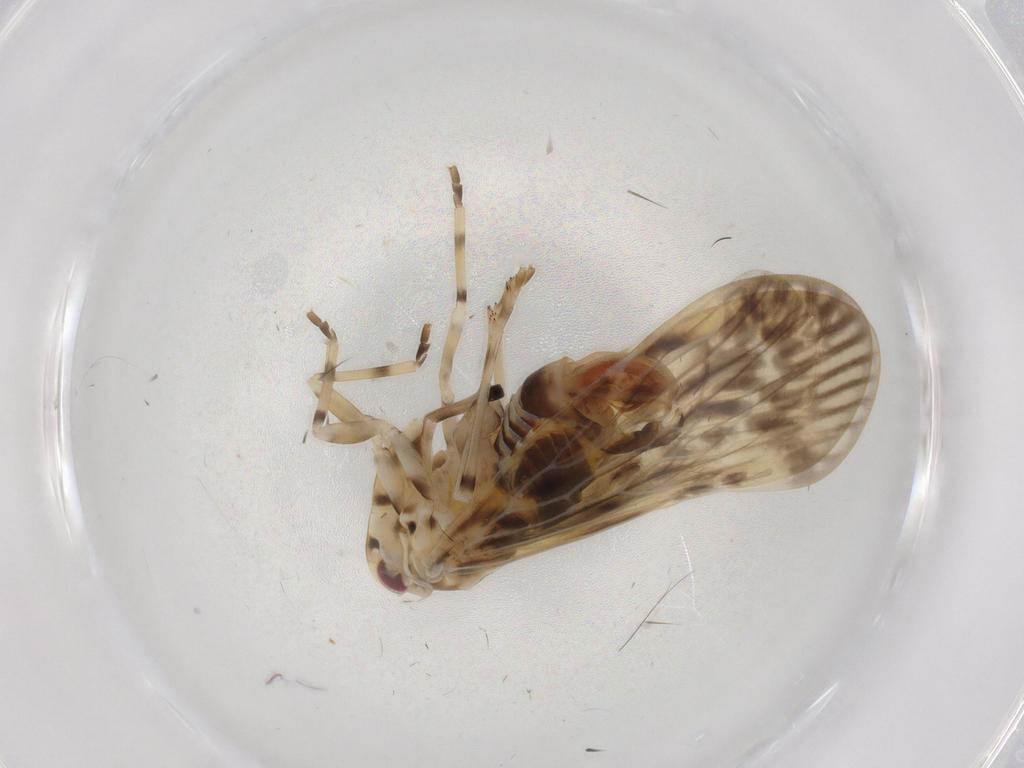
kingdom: Animalia
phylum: Arthropoda
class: Insecta
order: Hemiptera
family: Derbidae
